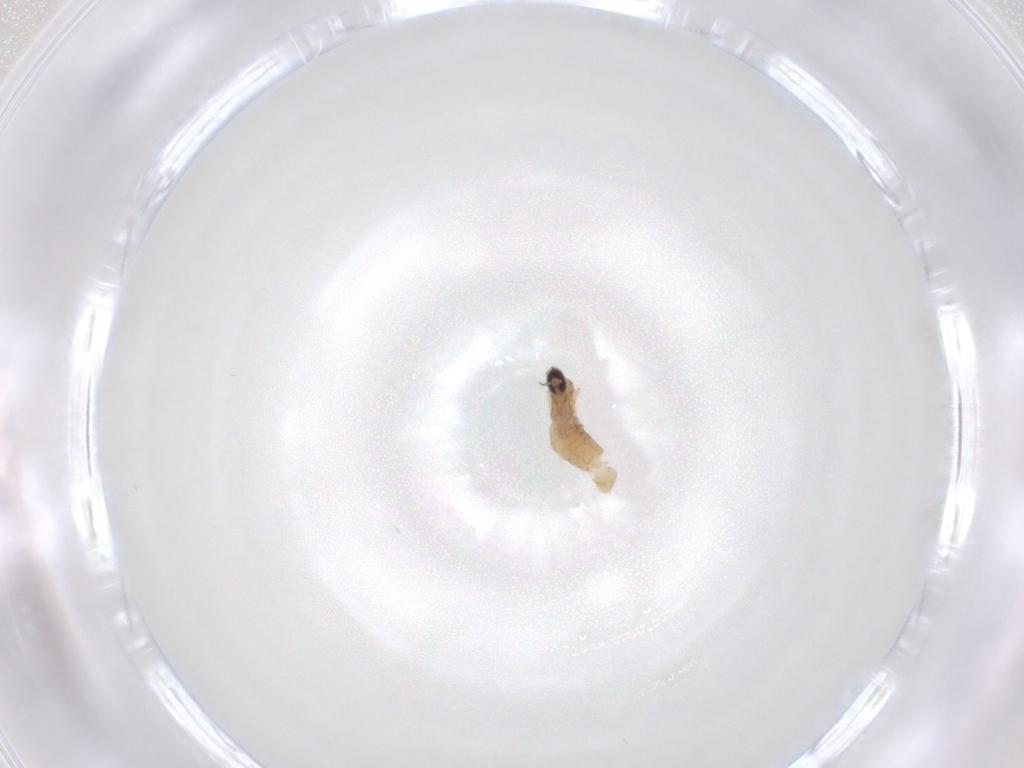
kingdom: Animalia
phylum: Arthropoda
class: Insecta
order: Diptera
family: Cecidomyiidae
